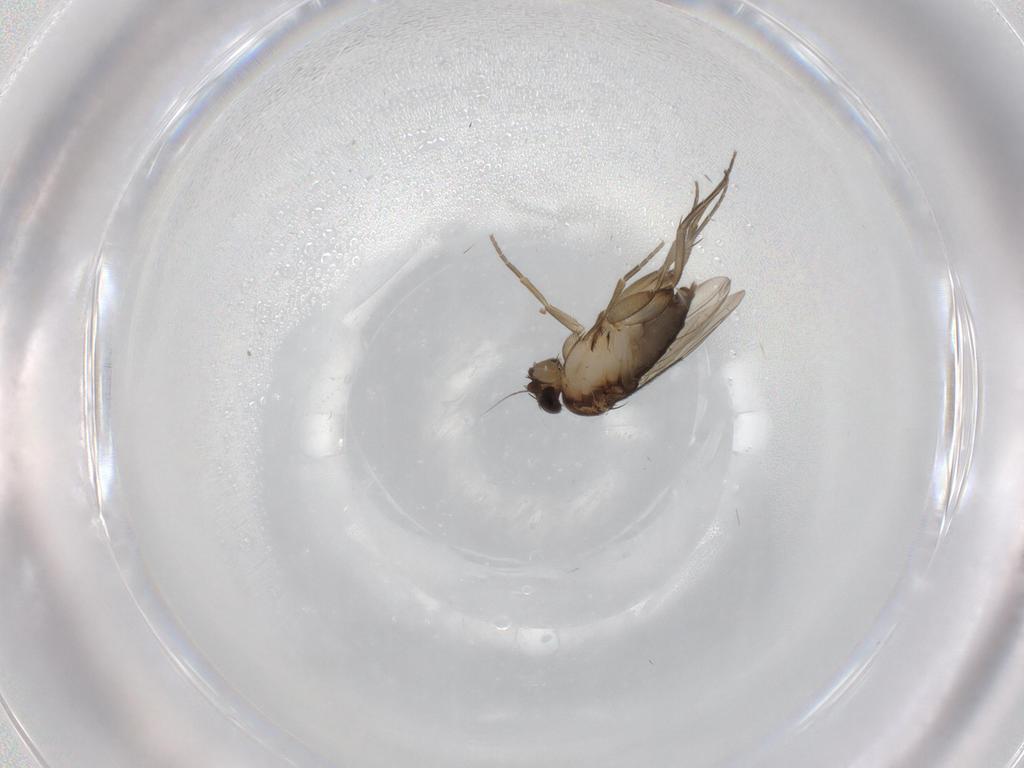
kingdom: Animalia
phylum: Arthropoda
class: Insecta
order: Diptera
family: Phoridae
